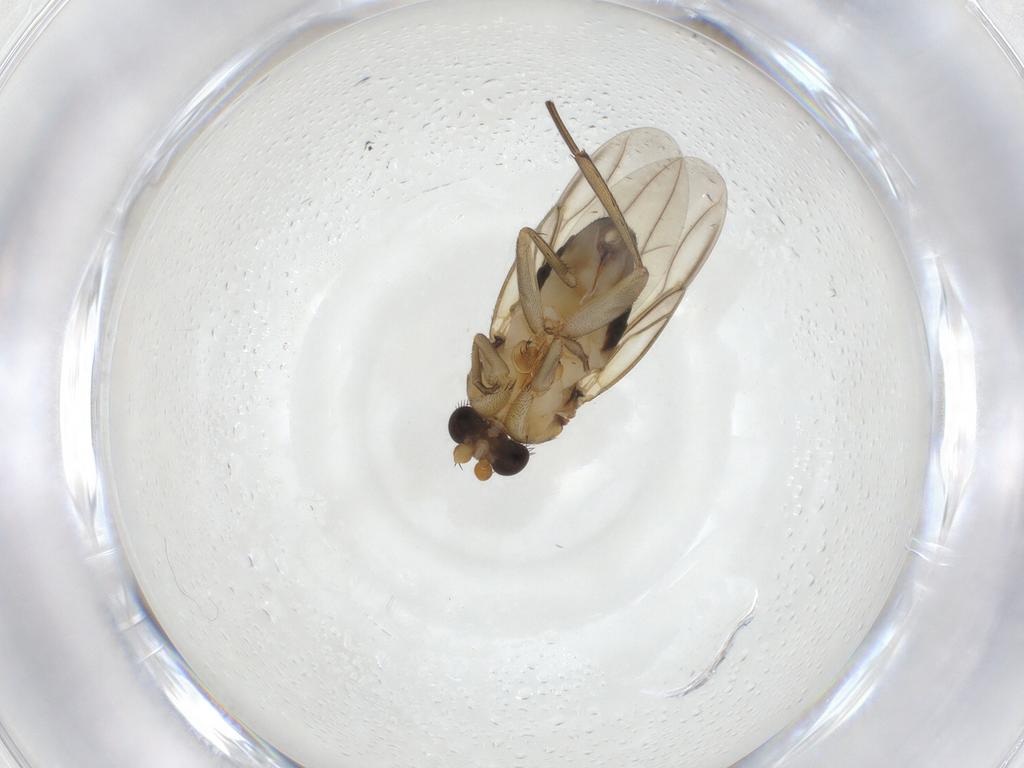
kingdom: Animalia
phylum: Arthropoda
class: Insecta
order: Diptera
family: Phoridae
